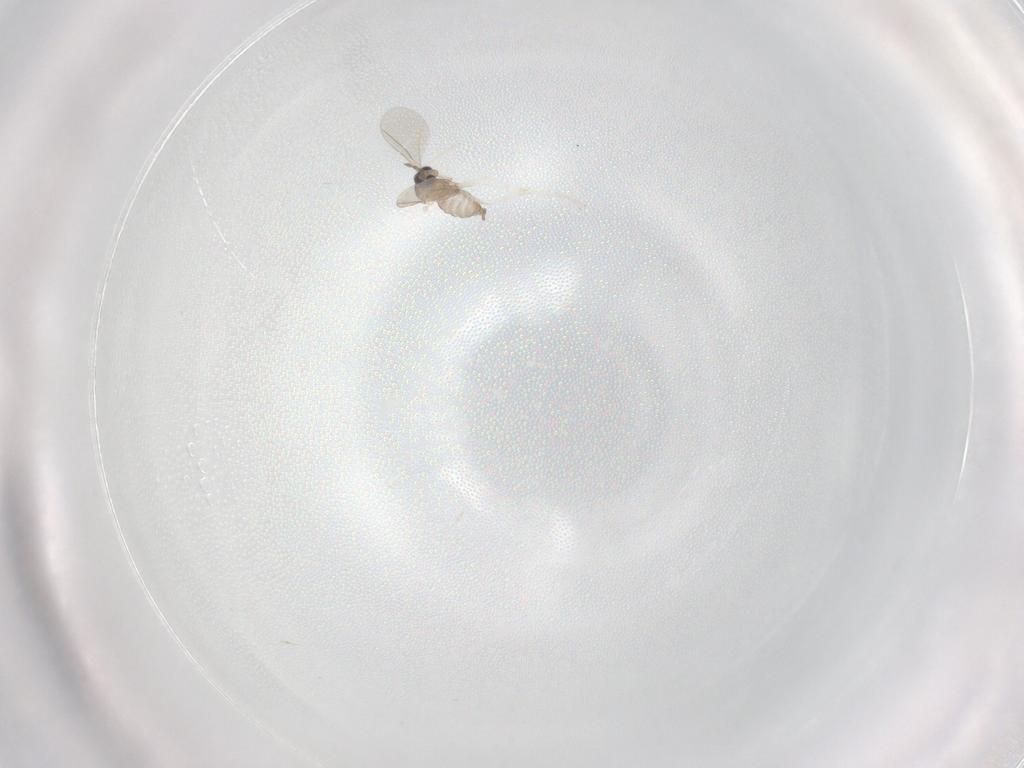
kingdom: Animalia
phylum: Arthropoda
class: Insecta
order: Diptera
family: Cecidomyiidae
